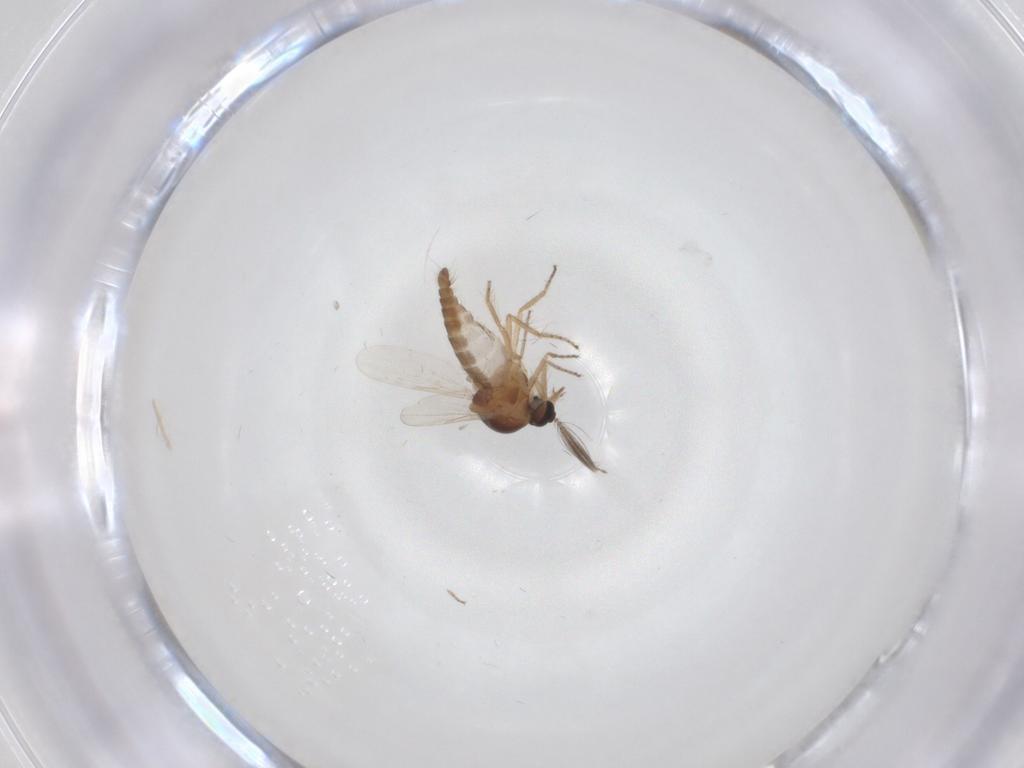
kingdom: Animalia
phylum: Arthropoda
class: Insecta
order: Diptera
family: Ceratopogonidae
